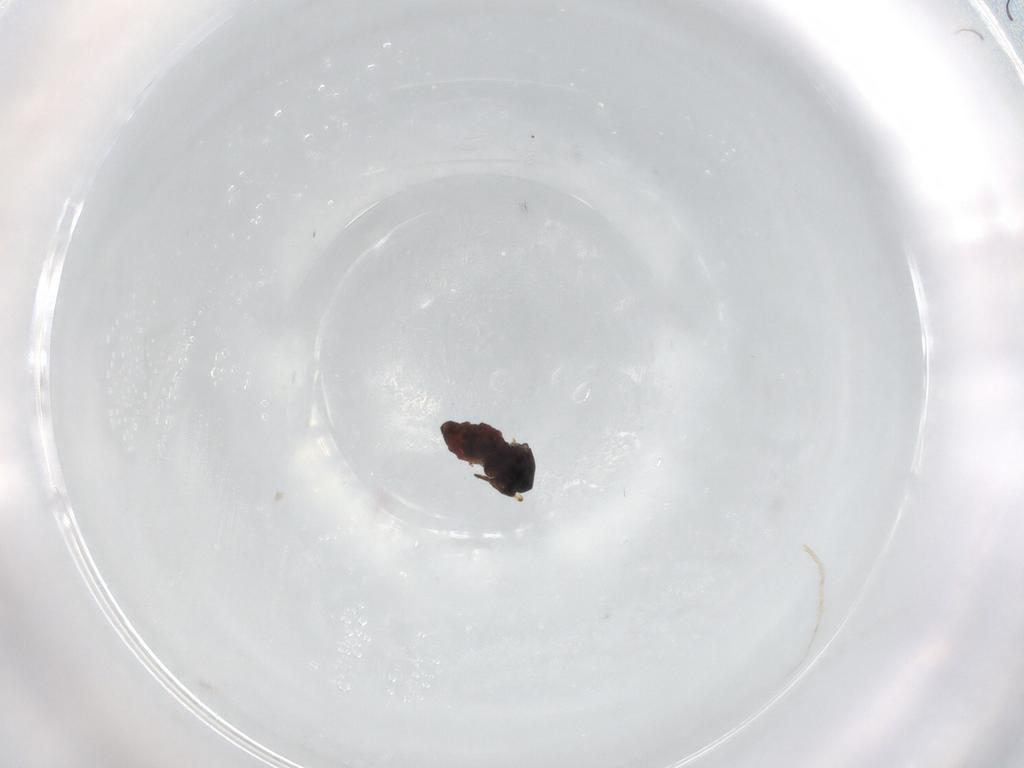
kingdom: Animalia
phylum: Arthropoda
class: Insecta
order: Diptera
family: Ceratopogonidae
